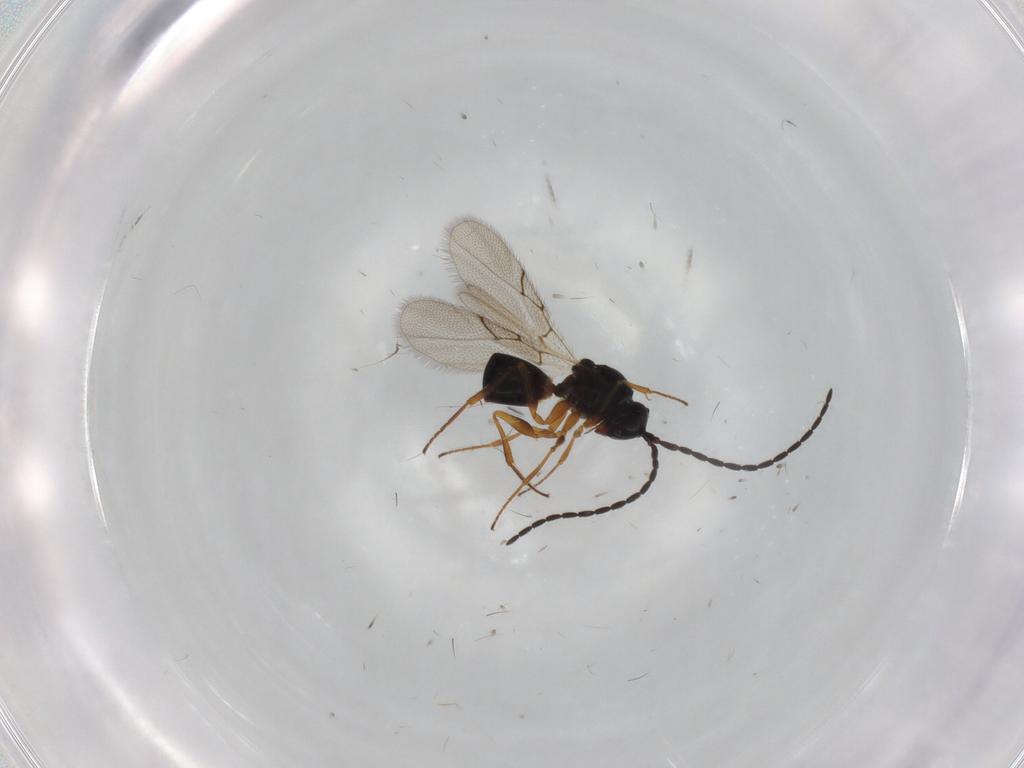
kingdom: Animalia
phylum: Arthropoda
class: Insecta
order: Hymenoptera
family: Figitidae
